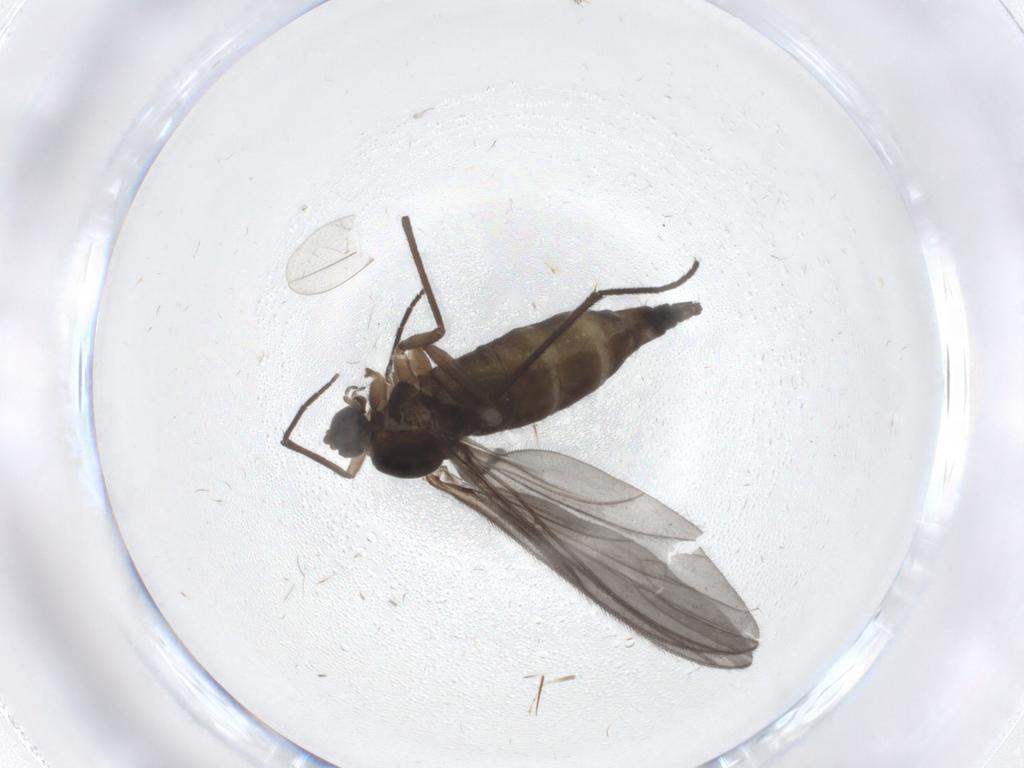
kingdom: Animalia
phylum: Arthropoda
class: Insecta
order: Diptera
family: Sciaridae
